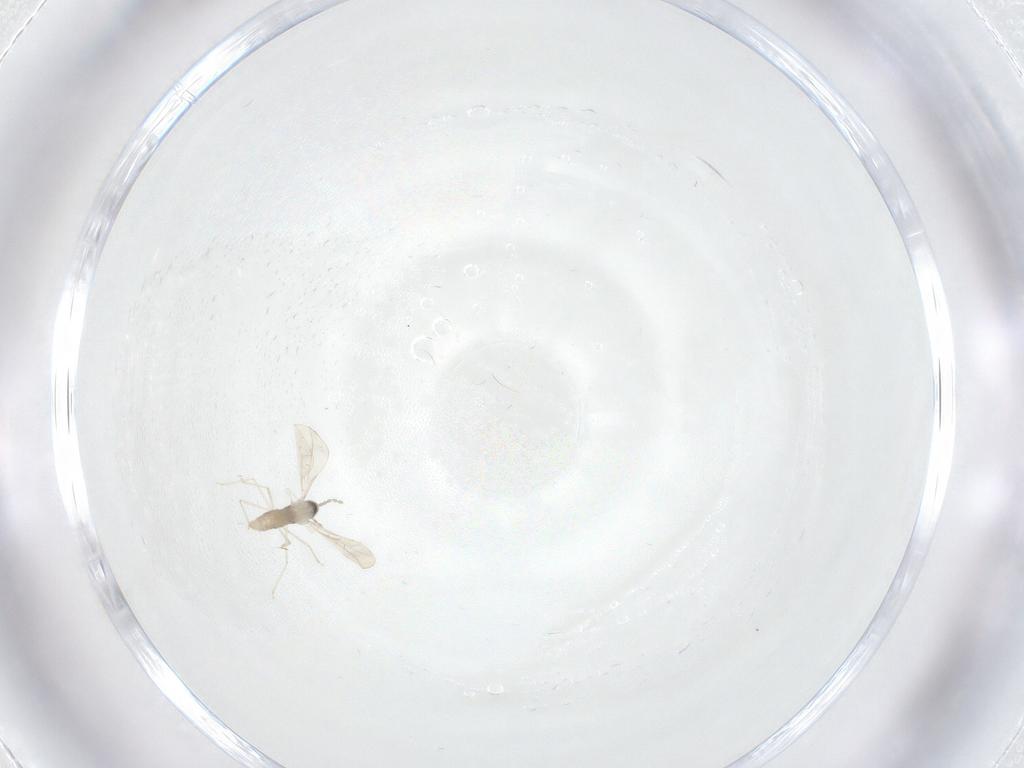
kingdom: Animalia
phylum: Arthropoda
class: Insecta
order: Diptera
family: Cecidomyiidae
